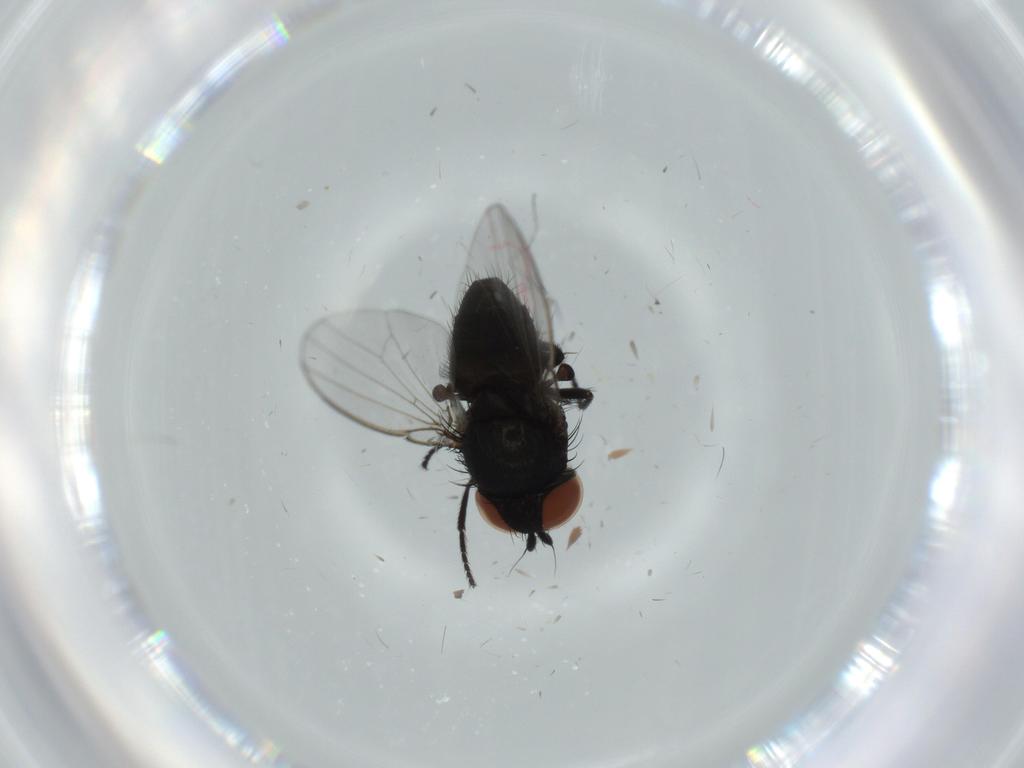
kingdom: Animalia
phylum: Arthropoda
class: Insecta
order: Diptera
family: Milichiidae
